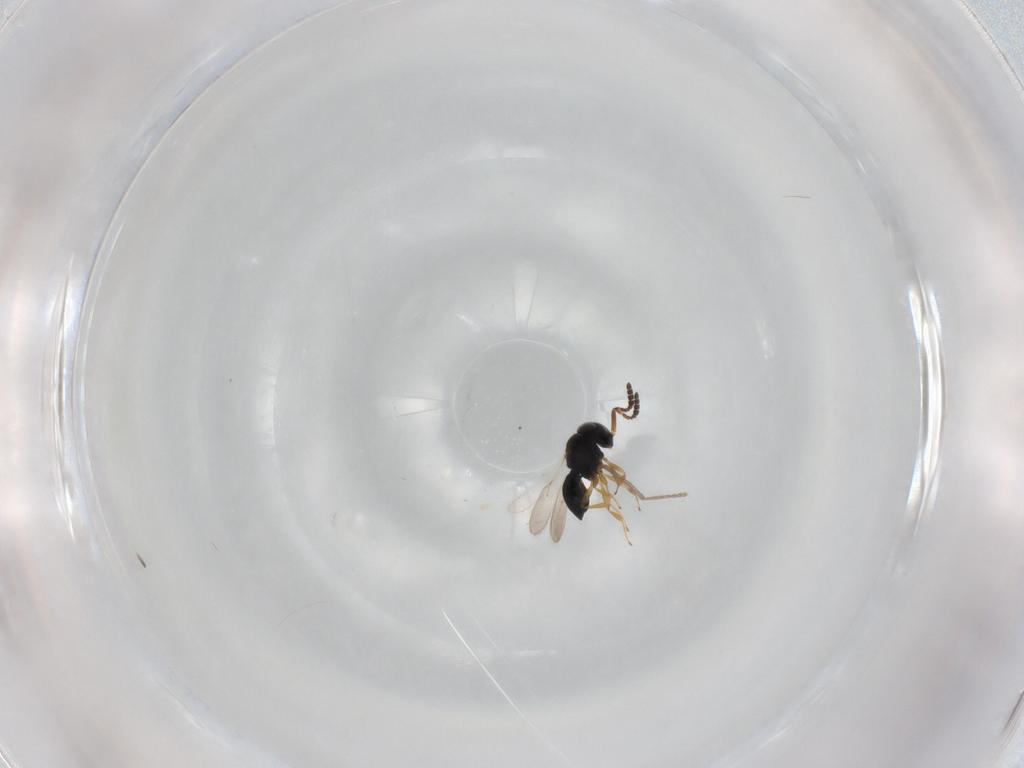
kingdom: Animalia
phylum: Arthropoda
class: Insecta
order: Hymenoptera
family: Scelionidae
